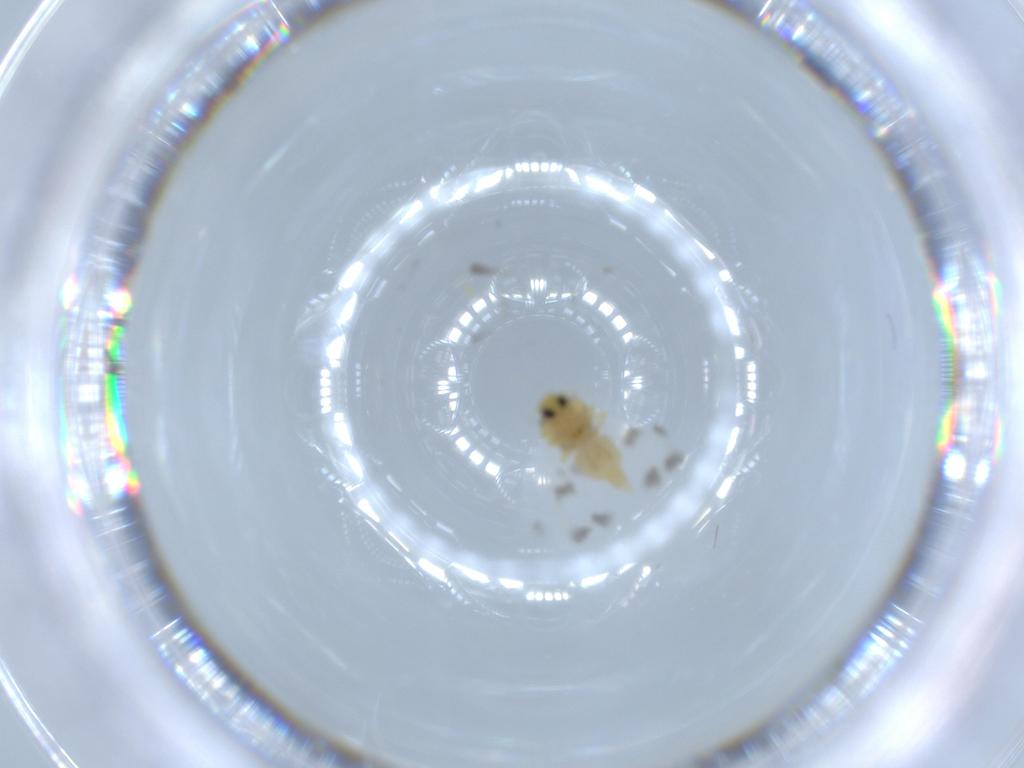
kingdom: Animalia
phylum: Arthropoda
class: Insecta
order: Hemiptera
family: Aleyrodidae
